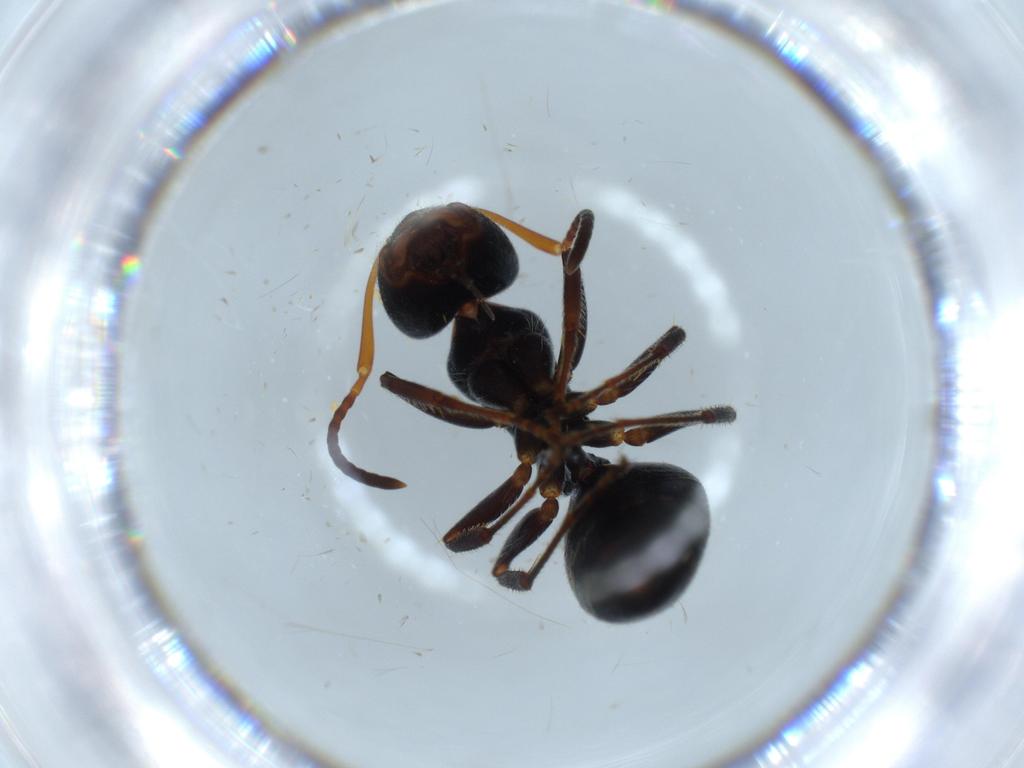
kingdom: Animalia
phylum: Arthropoda
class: Insecta
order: Hymenoptera
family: Formicidae
